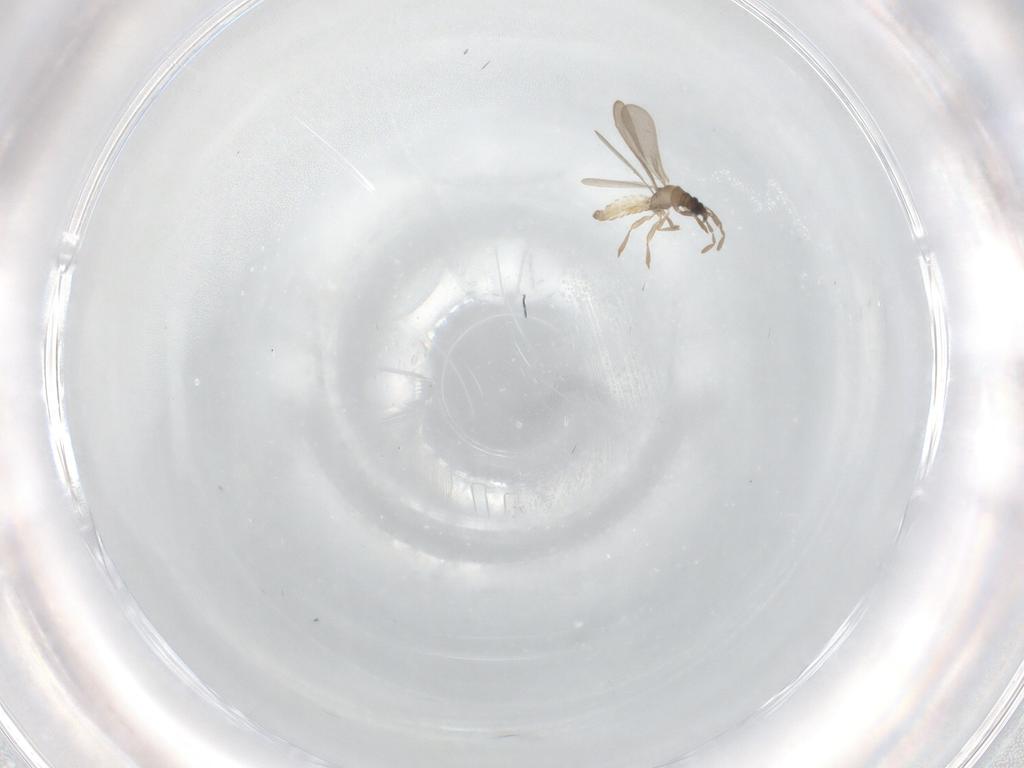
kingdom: Animalia
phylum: Arthropoda
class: Insecta
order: Hemiptera
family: Enicocephalidae
